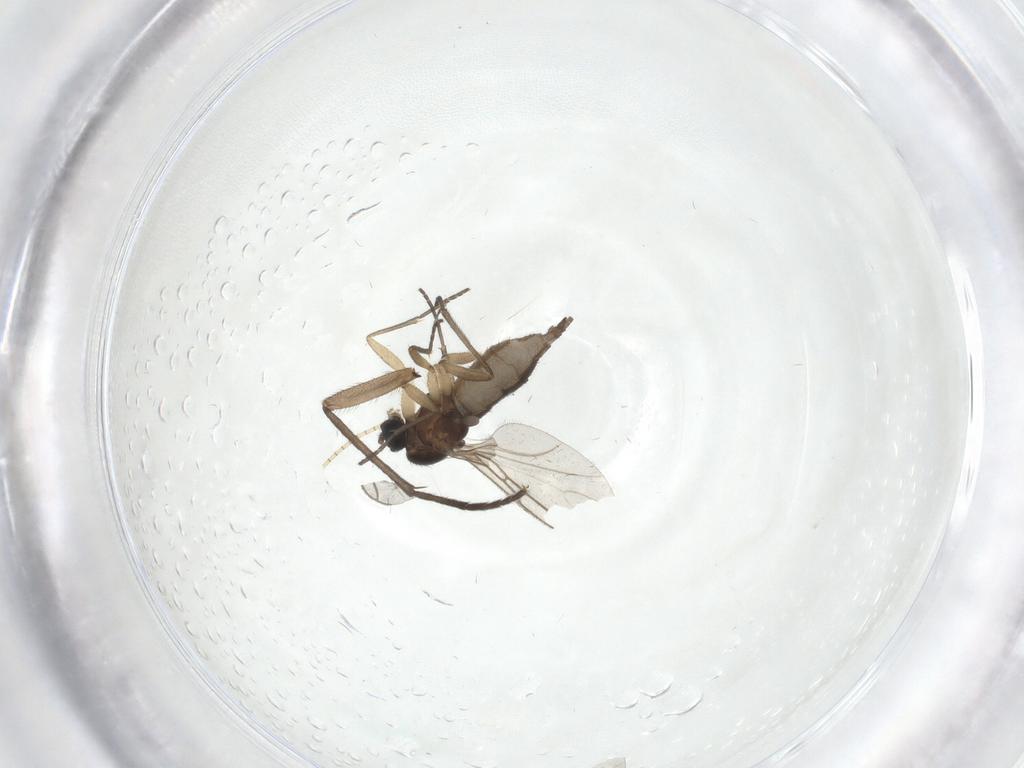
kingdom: Animalia
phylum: Arthropoda
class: Insecta
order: Diptera
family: Sciaridae
